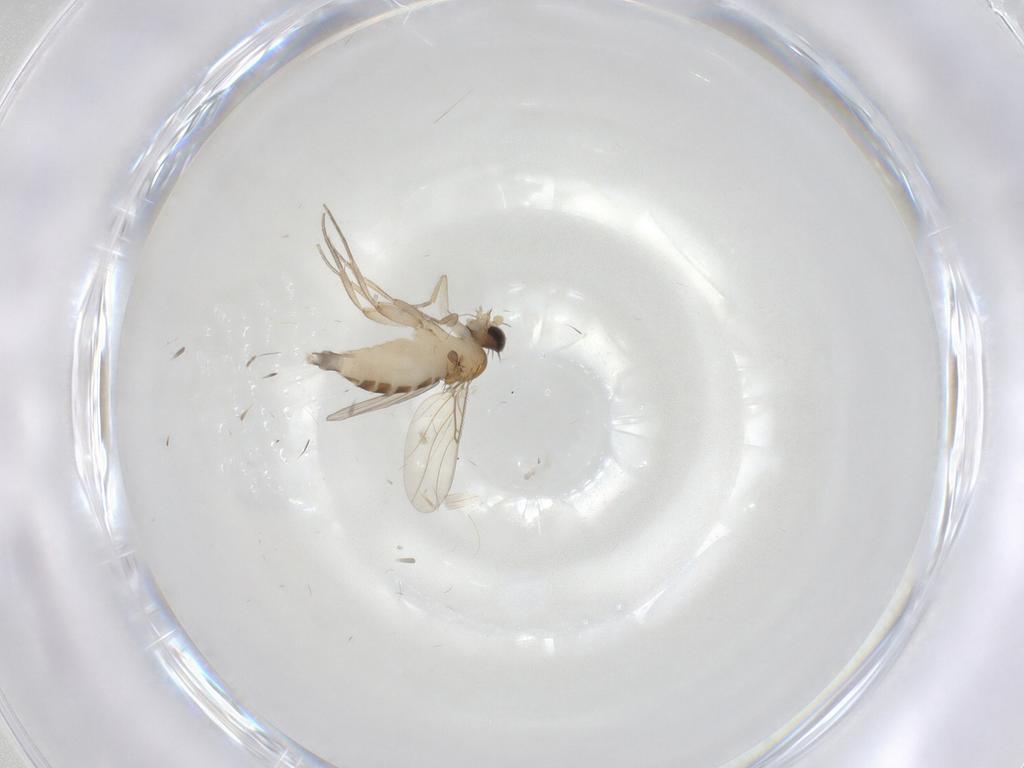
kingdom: Animalia
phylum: Arthropoda
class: Insecta
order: Diptera
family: Phoridae
